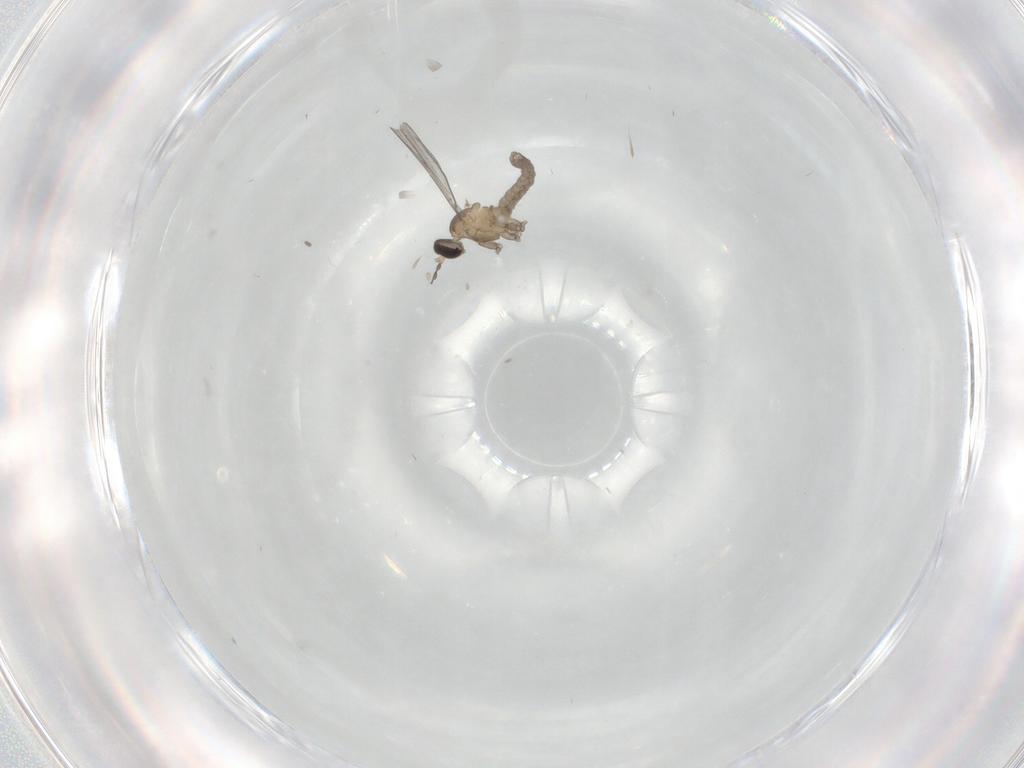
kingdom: Animalia
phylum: Arthropoda
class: Insecta
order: Diptera
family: Cecidomyiidae
